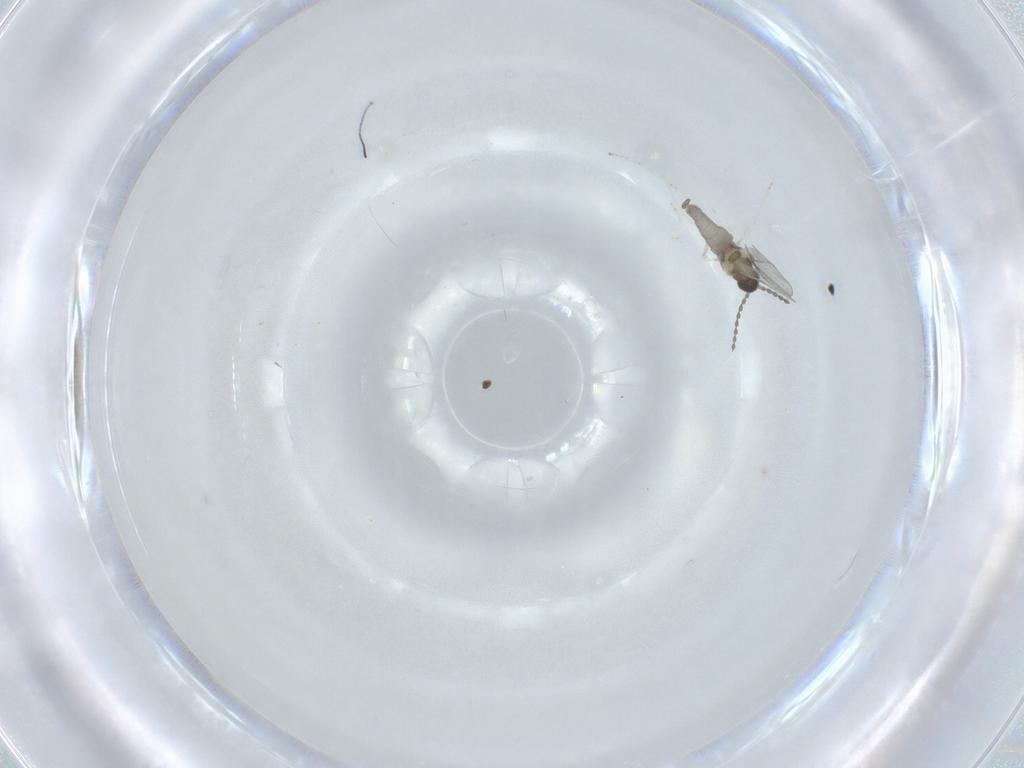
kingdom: Animalia
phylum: Arthropoda
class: Insecta
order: Diptera
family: Cecidomyiidae
